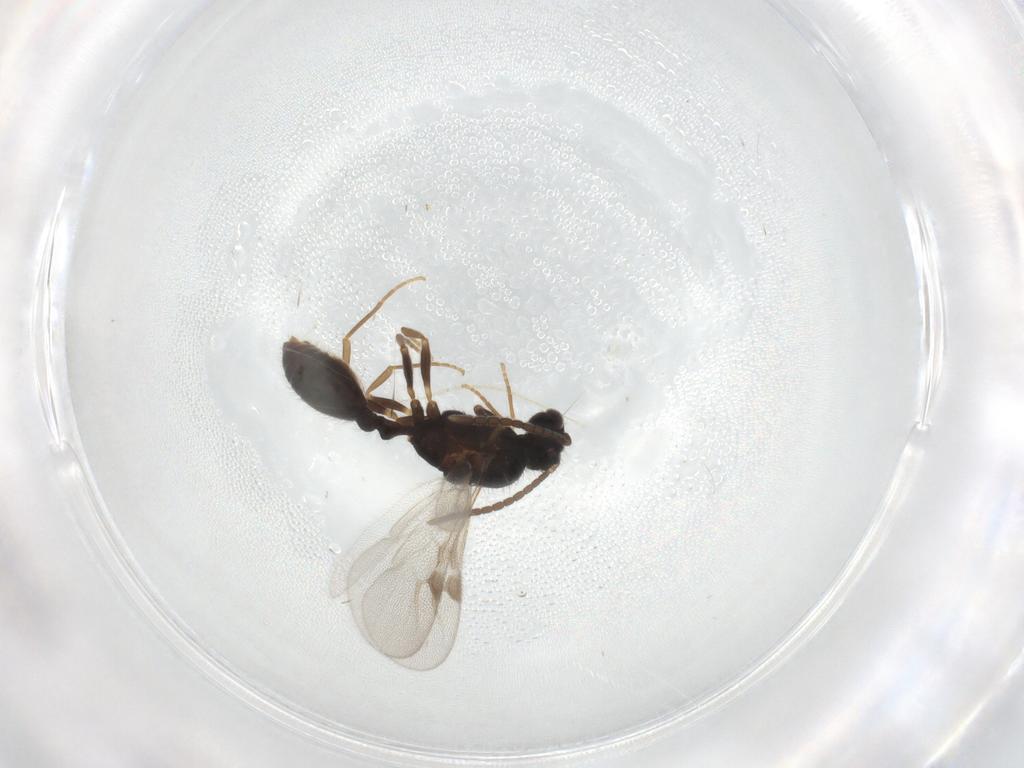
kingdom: Animalia
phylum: Arthropoda
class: Insecta
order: Hymenoptera
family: Formicidae
